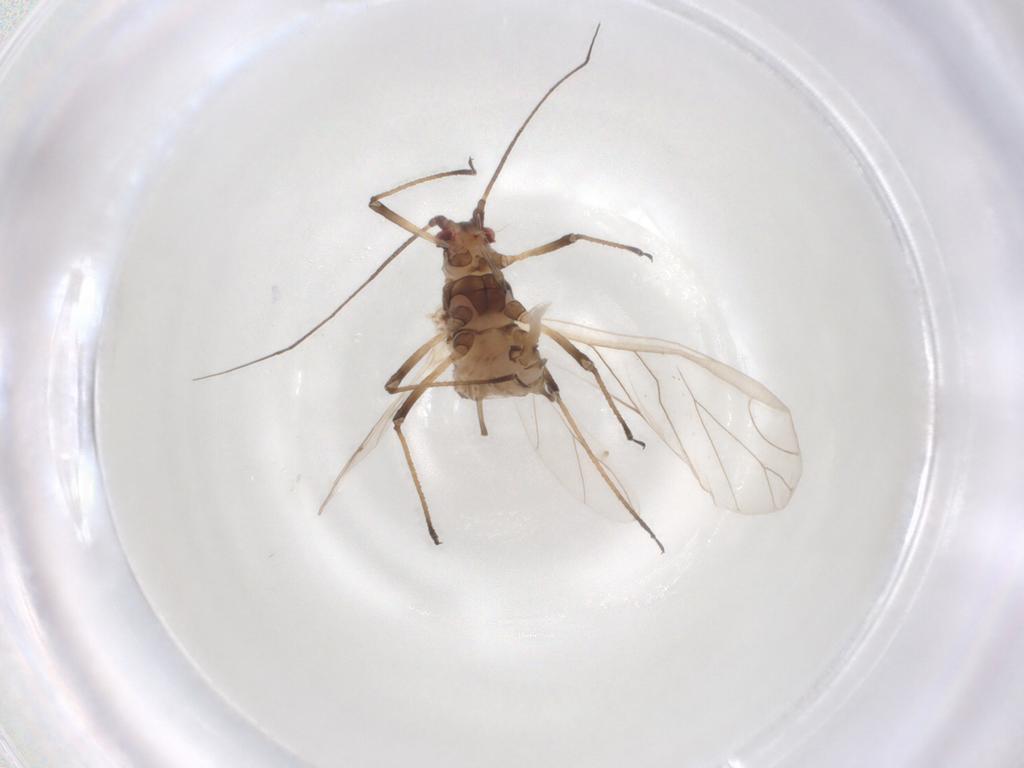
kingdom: Animalia
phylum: Arthropoda
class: Insecta
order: Hemiptera
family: Aphididae
